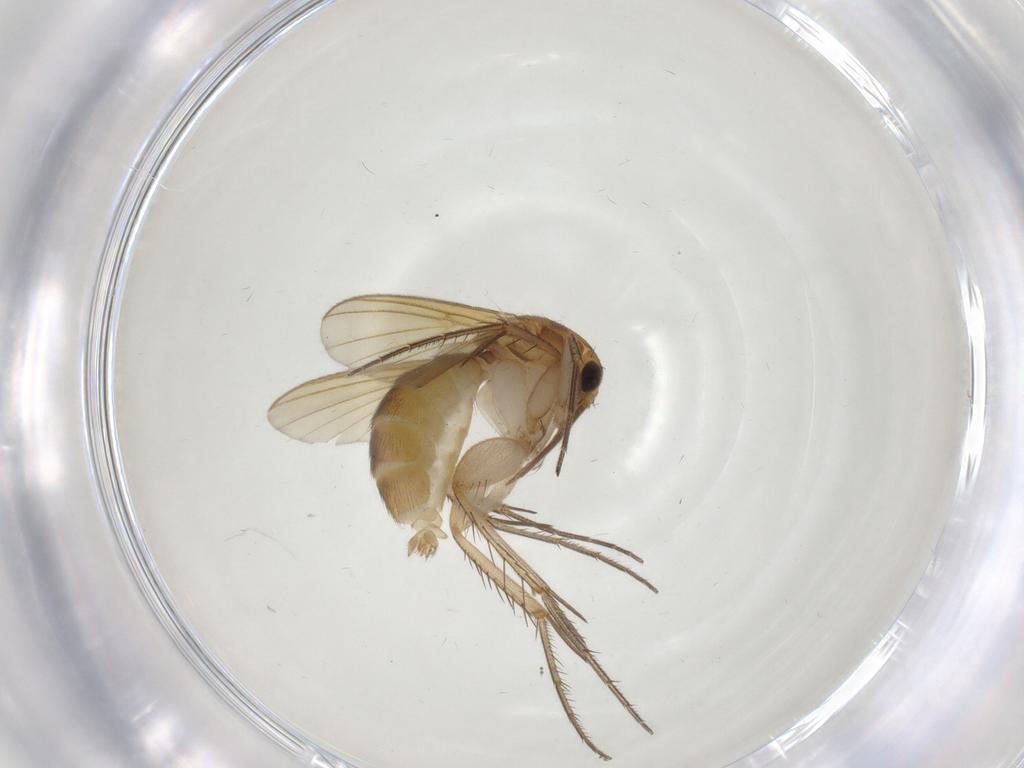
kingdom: Animalia
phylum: Arthropoda
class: Insecta
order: Diptera
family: Mycetophilidae
